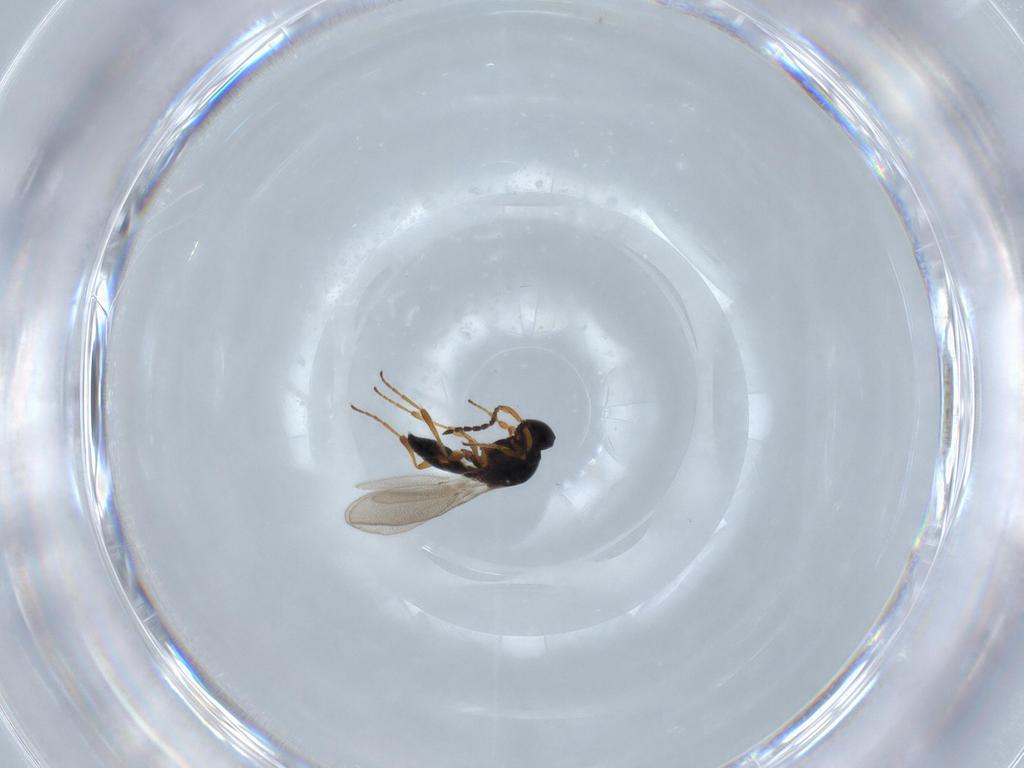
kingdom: Animalia
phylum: Arthropoda
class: Insecta
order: Hymenoptera
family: Platygastridae
